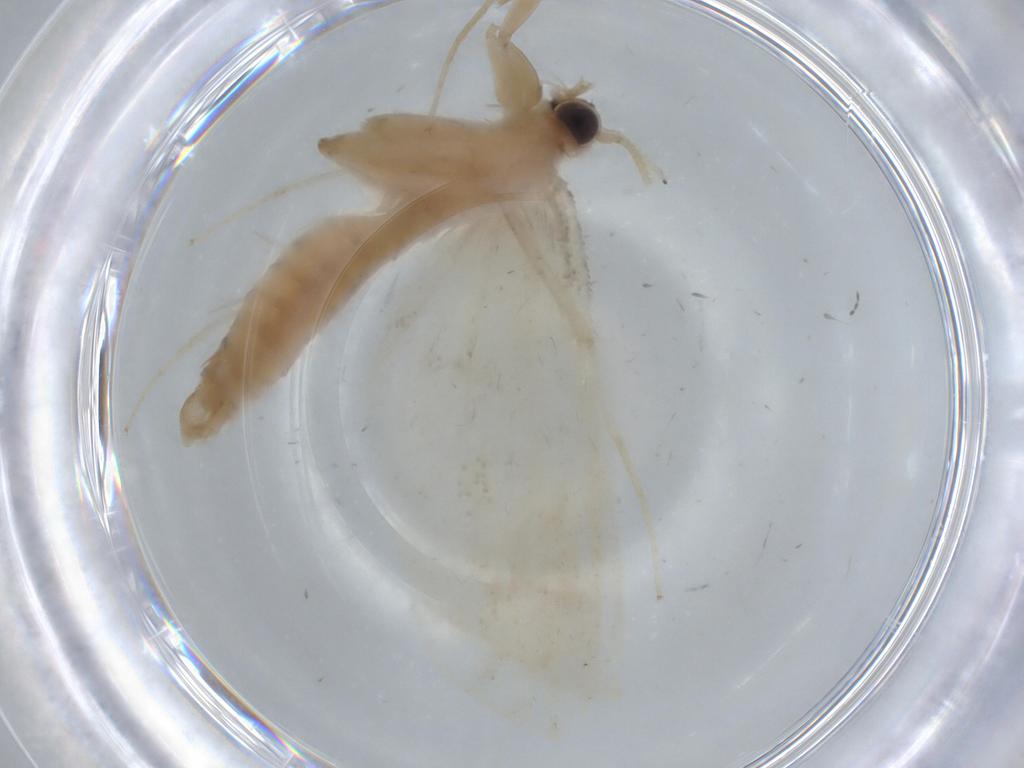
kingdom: Animalia
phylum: Arthropoda
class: Insecta
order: Lepidoptera
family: Crambidae
